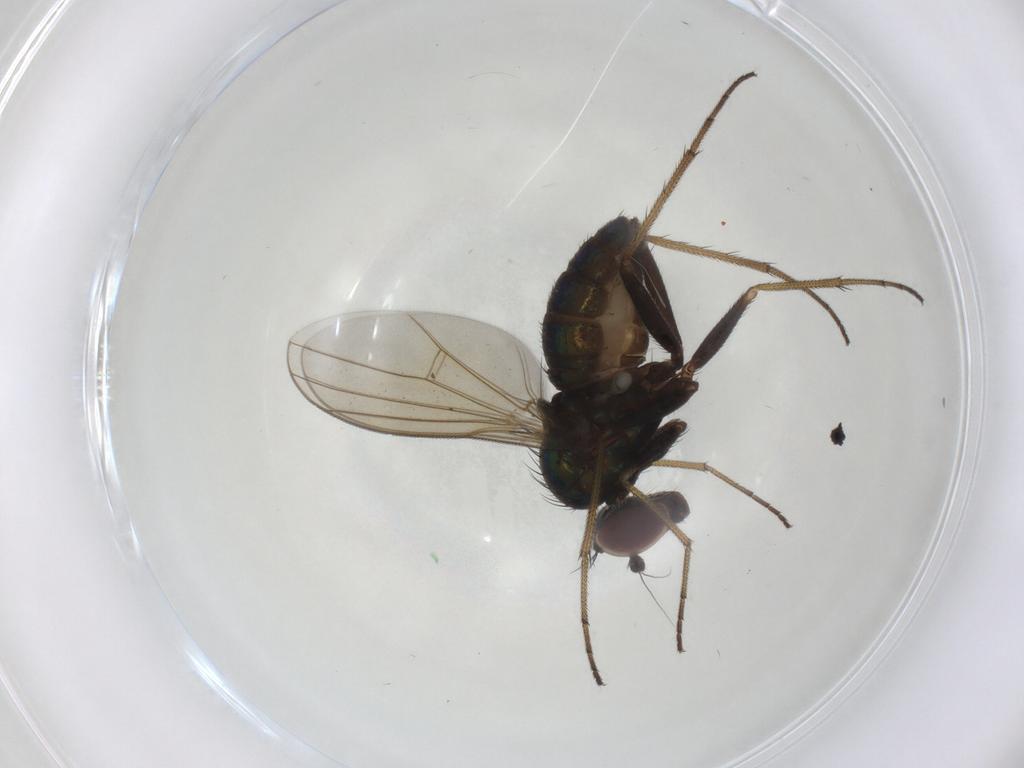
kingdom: Animalia
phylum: Arthropoda
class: Insecta
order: Diptera
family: Dolichopodidae
